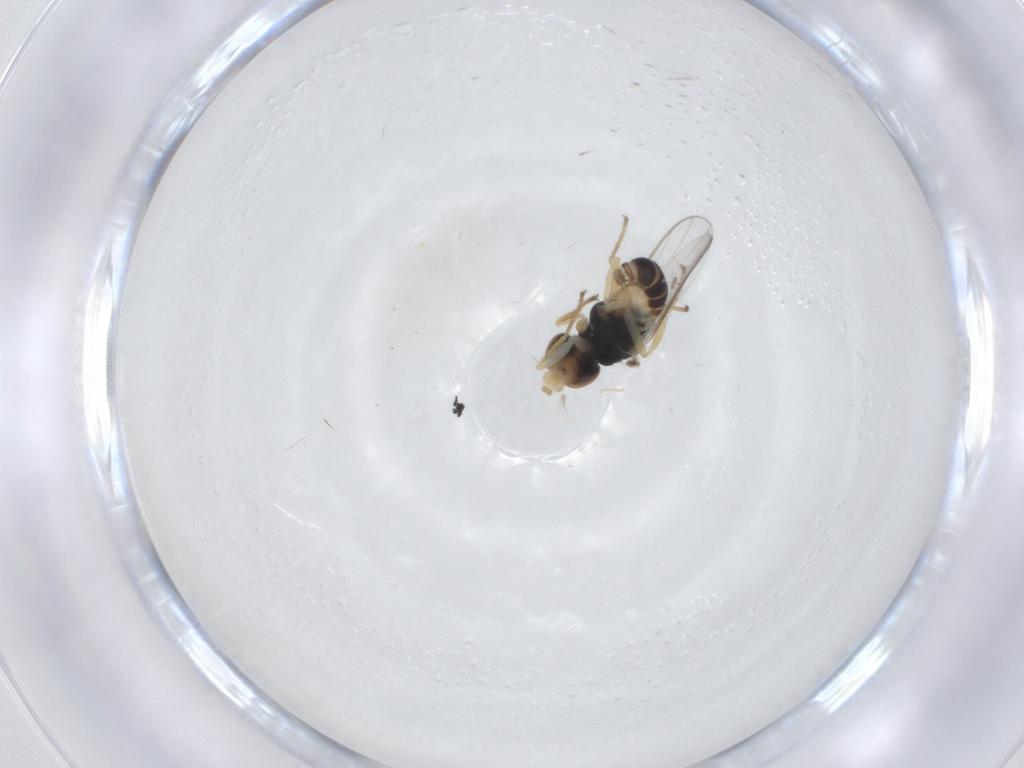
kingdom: Animalia
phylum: Arthropoda
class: Insecta
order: Diptera
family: Chloropidae
